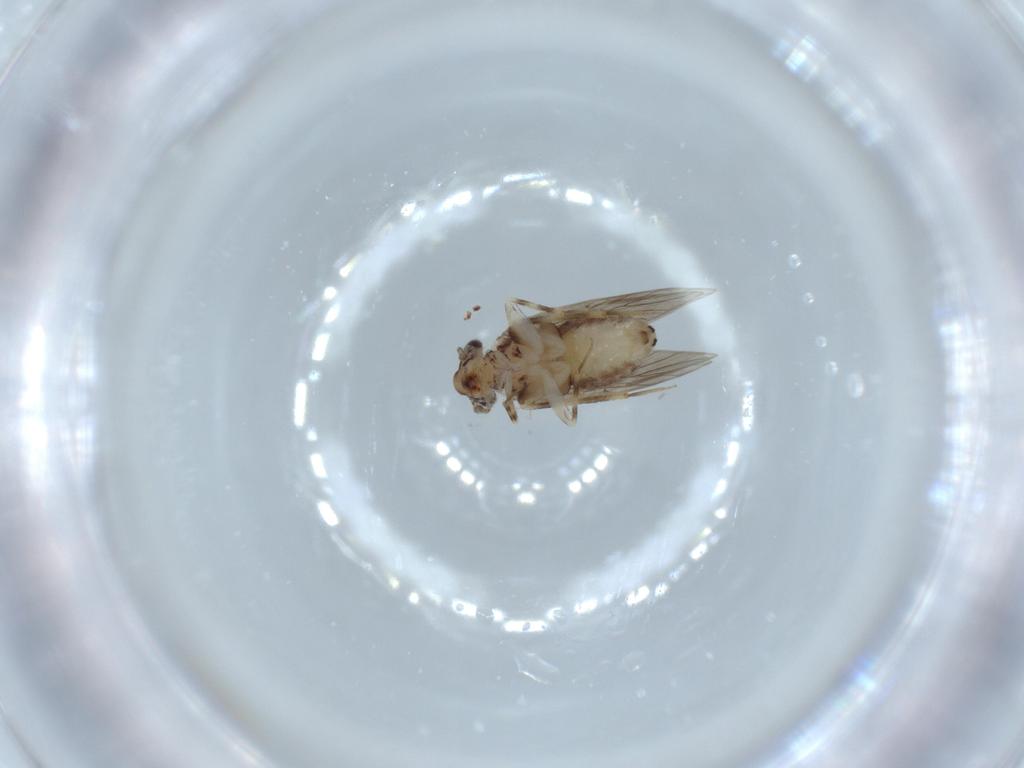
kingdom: Animalia
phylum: Arthropoda
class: Insecta
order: Psocodea
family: Lepidopsocidae
